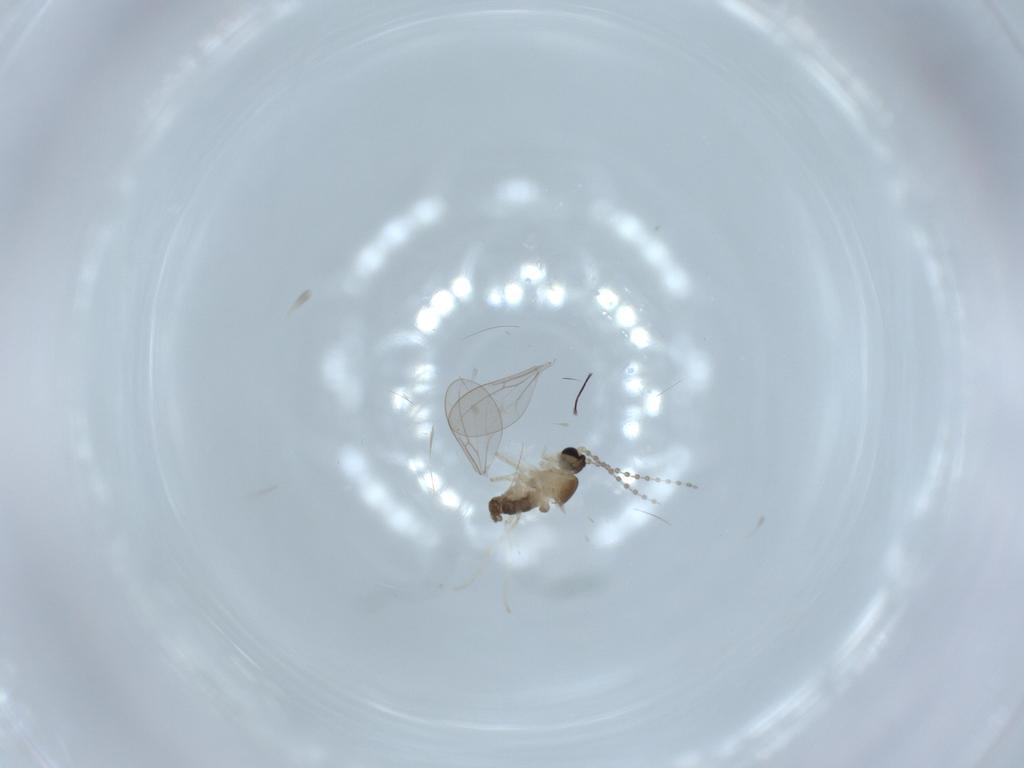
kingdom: Animalia
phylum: Arthropoda
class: Insecta
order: Diptera
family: Cecidomyiidae
